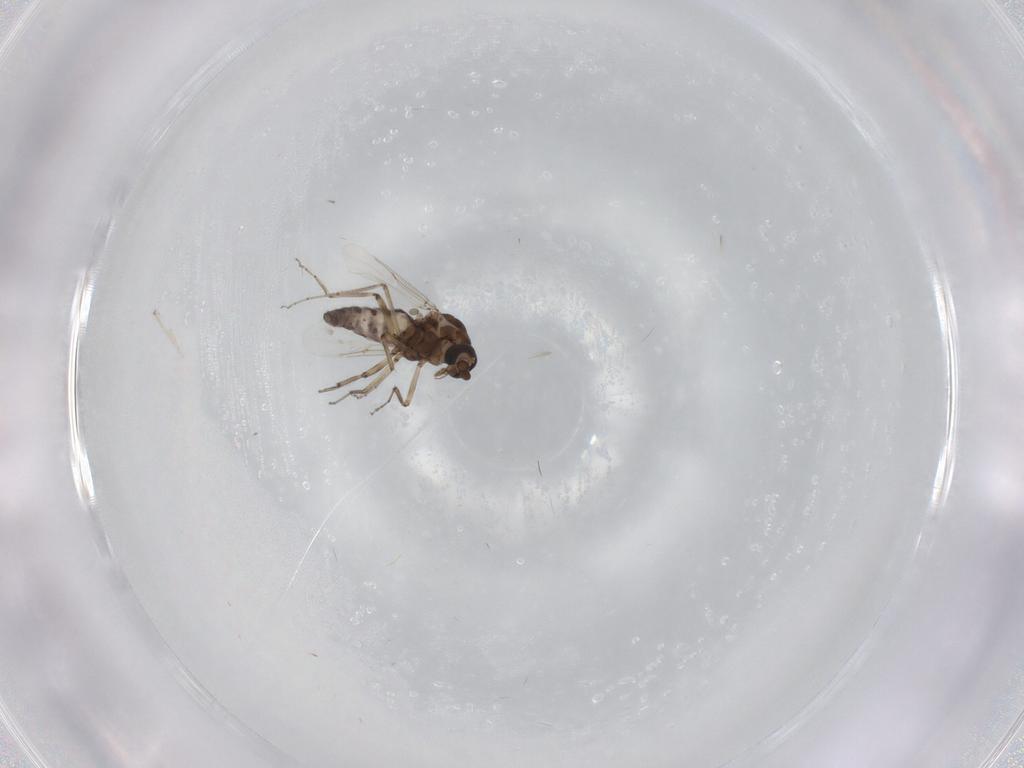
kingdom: Animalia
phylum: Arthropoda
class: Insecta
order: Diptera
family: Ceratopogonidae
